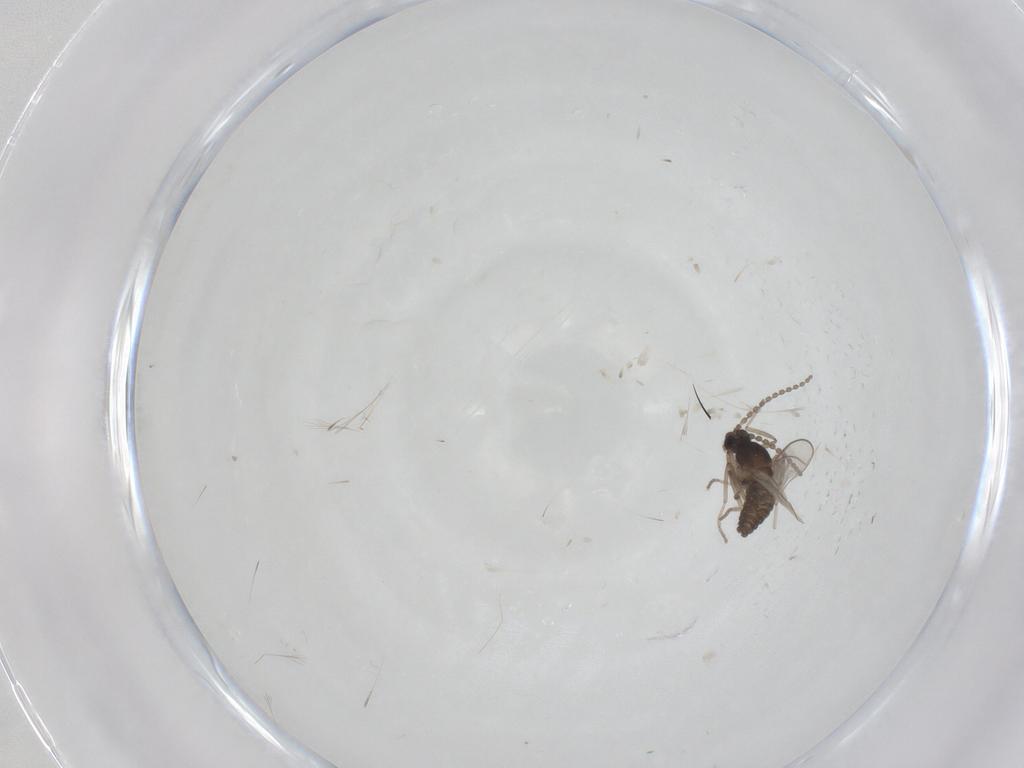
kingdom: Animalia
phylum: Arthropoda
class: Insecta
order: Diptera
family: Cecidomyiidae
